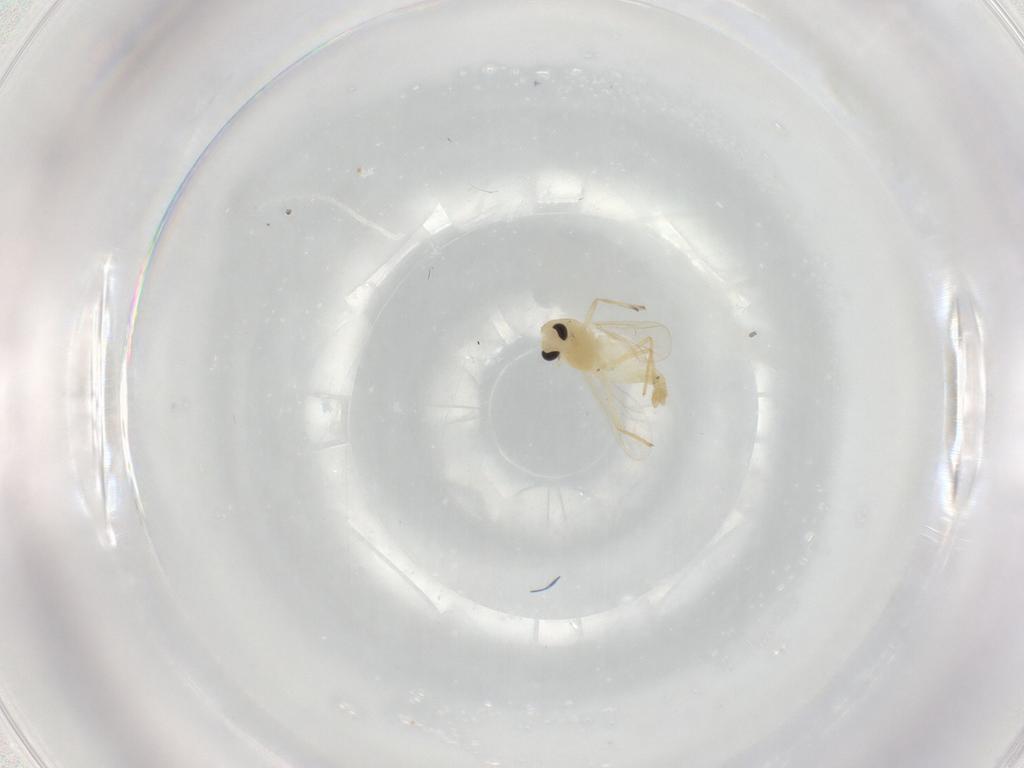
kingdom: Animalia
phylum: Arthropoda
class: Insecta
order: Diptera
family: Chironomidae
